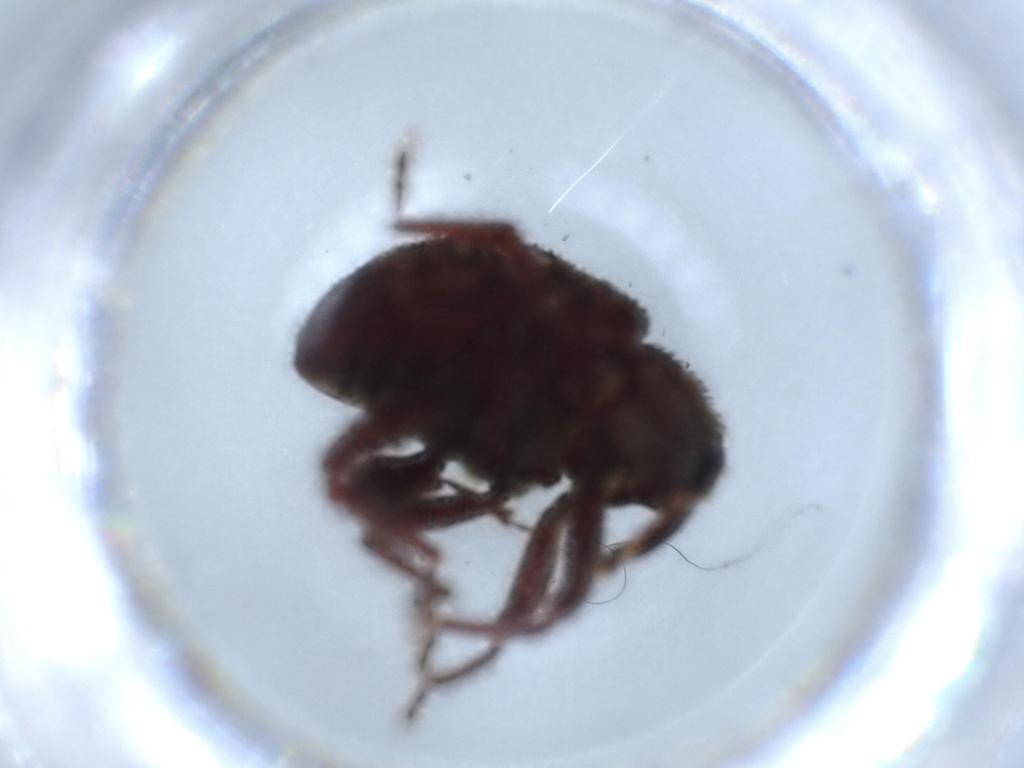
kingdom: Animalia
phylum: Arthropoda
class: Insecta
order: Coleoptera
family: Curculionidae
